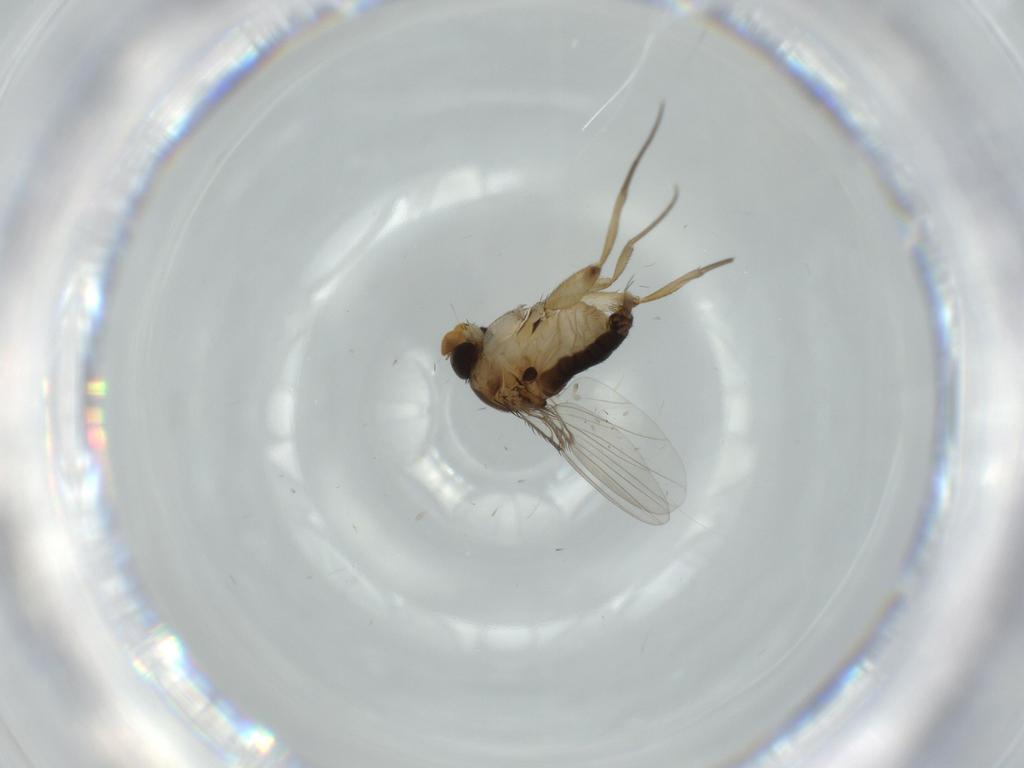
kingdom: Animalia
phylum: Arthropoda
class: Insecta
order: Diptera
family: Phoridae
